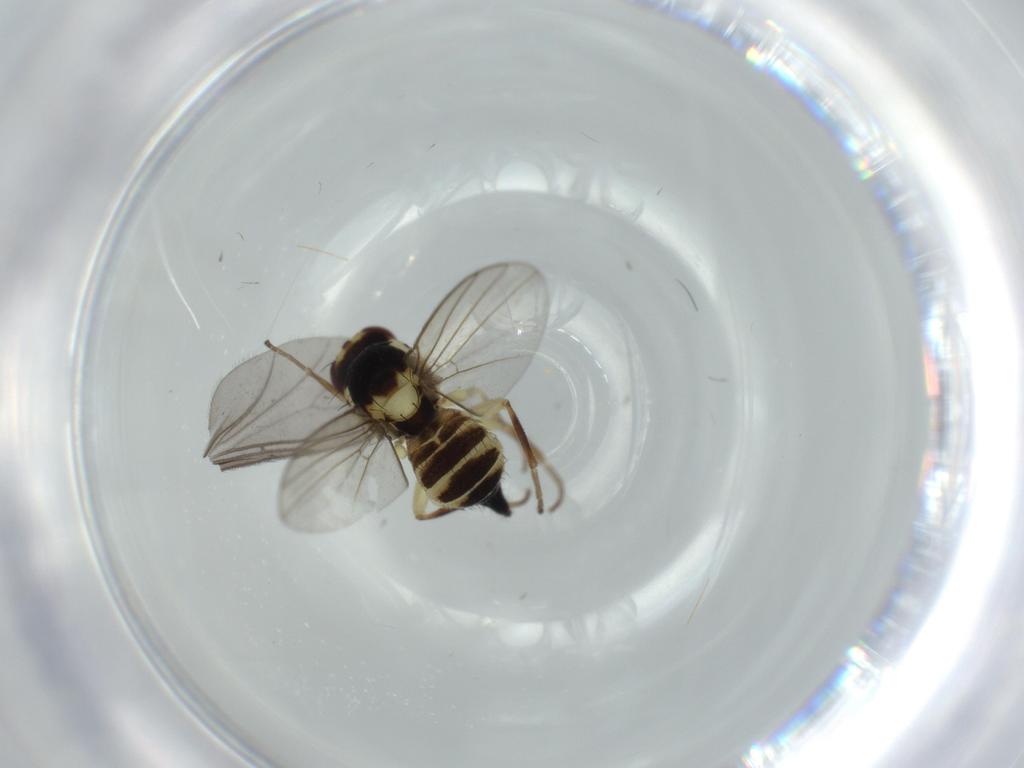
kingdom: Animalia
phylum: Arthropoda
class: Insecta
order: Diptera
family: Agromyzidae
